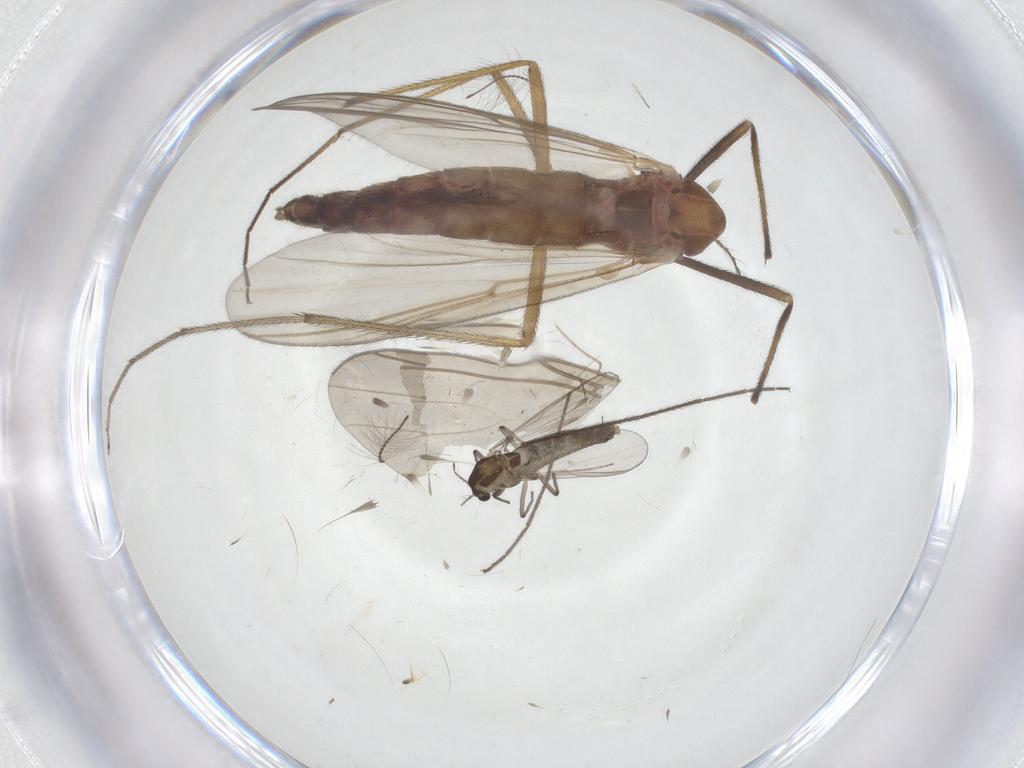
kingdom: Animalia
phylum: Arthropoda
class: Insecta
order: Diptera
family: Chironomidae
